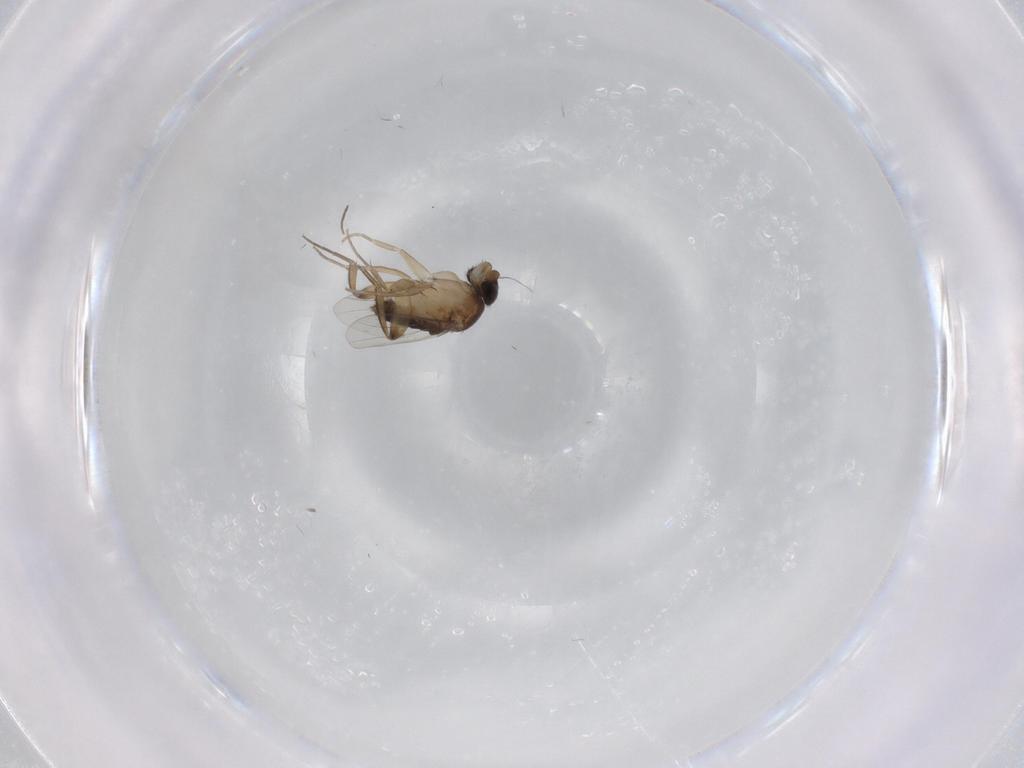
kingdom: Animalia
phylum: Arthropoda
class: Insecta
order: Diptera
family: Phoridae
